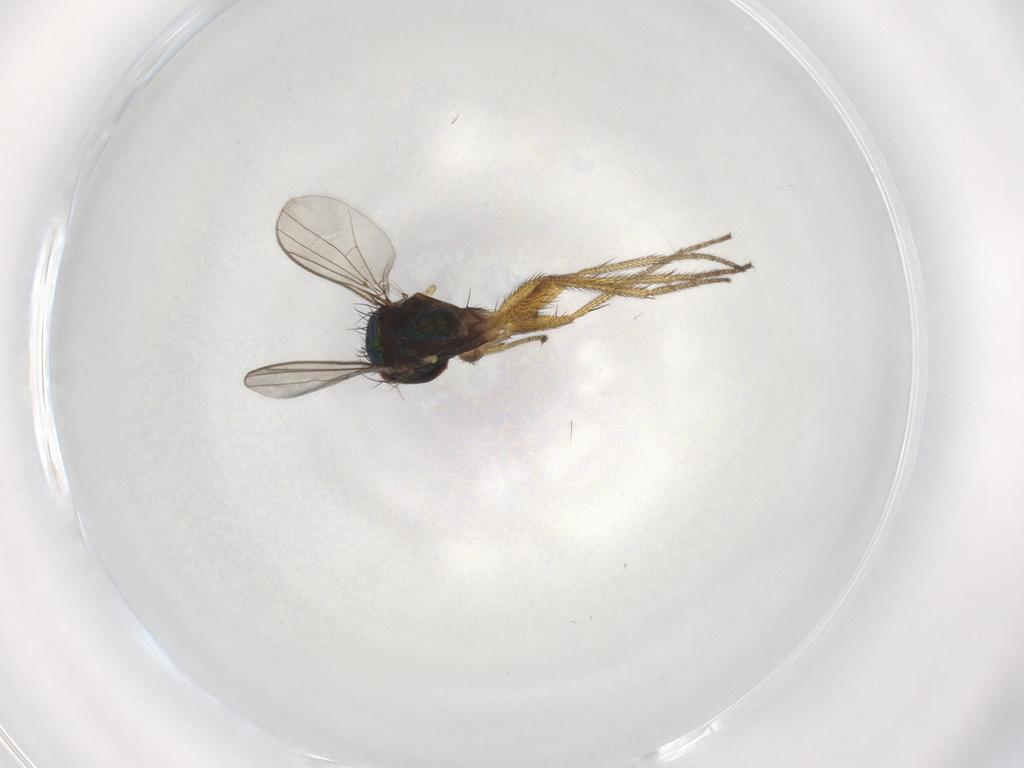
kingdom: Animalia
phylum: Arthropoda
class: Insecta
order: Diptera
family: Dolichopodidae
